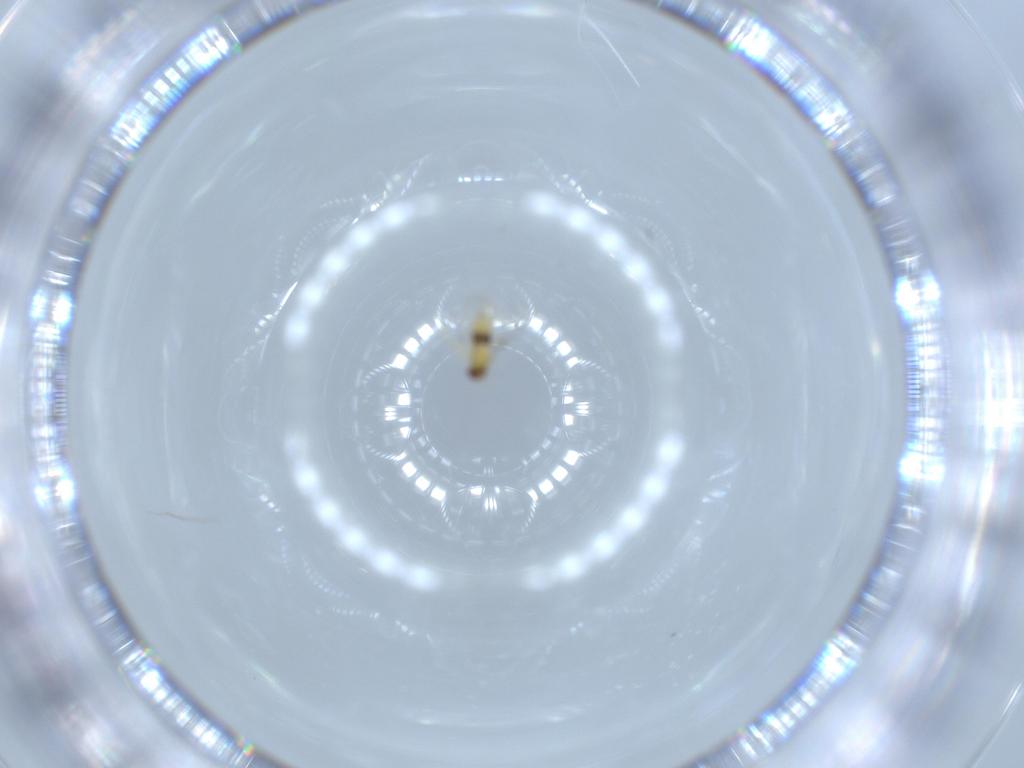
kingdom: Animalia
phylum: Arthropoda
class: Insecta
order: Hymenoptera
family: Trichogrammatidae
